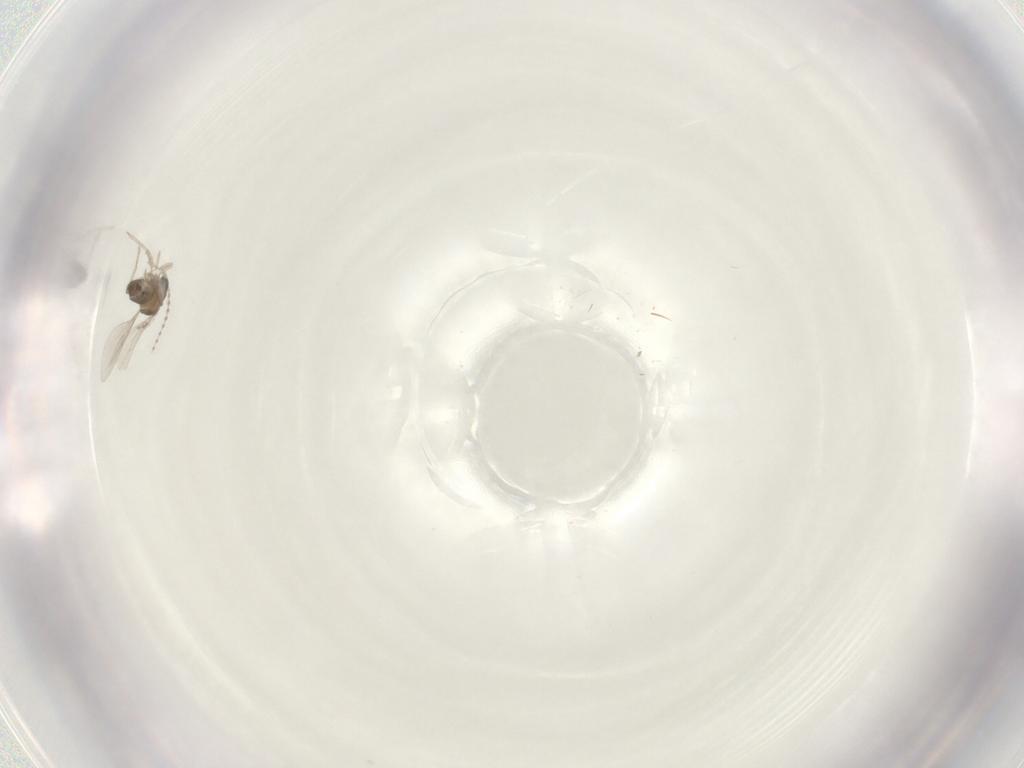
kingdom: Animalia
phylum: Arthropoda
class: Insecta
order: Diptera
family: Cecidomyiidae
